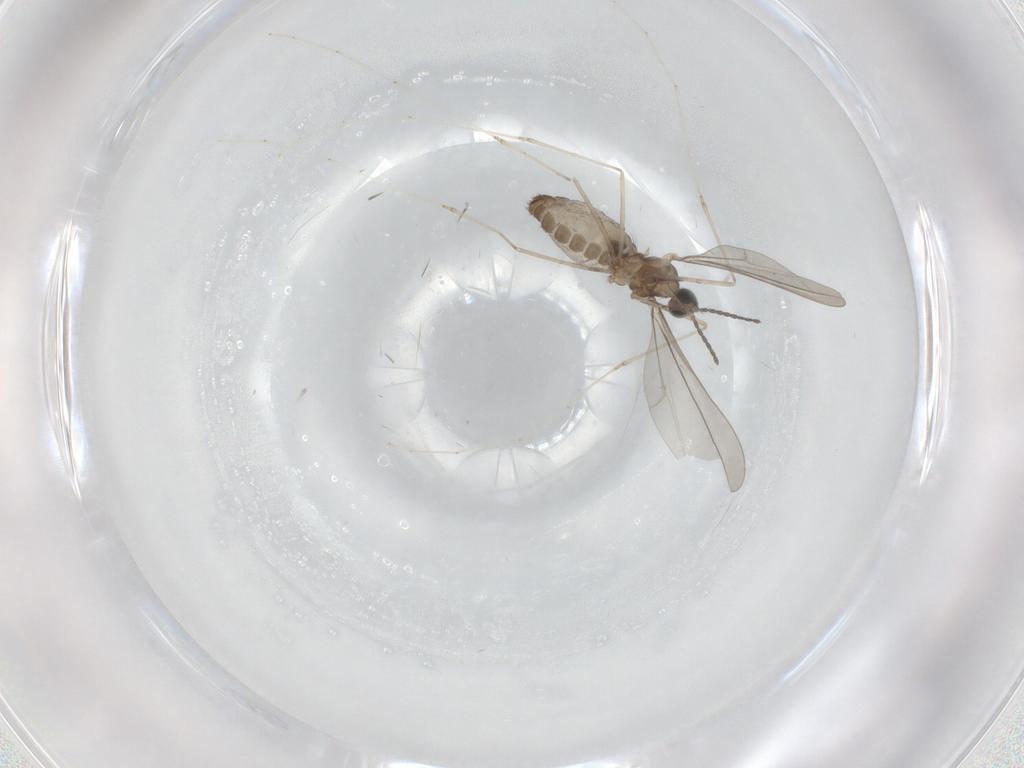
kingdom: Animalia
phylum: Arthropoda
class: Insecta
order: Diptera
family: Cecidomyiidae
